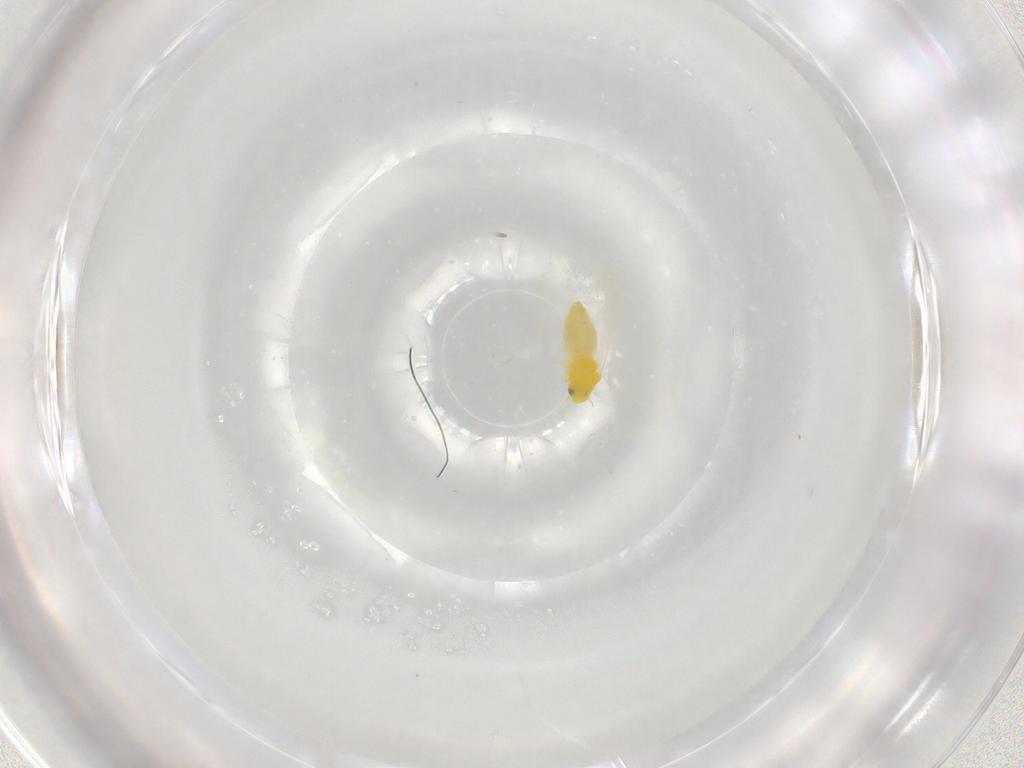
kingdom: Animalia
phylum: Arthropoda
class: Insecta
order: Hemiptera
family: Aleyrodidae
